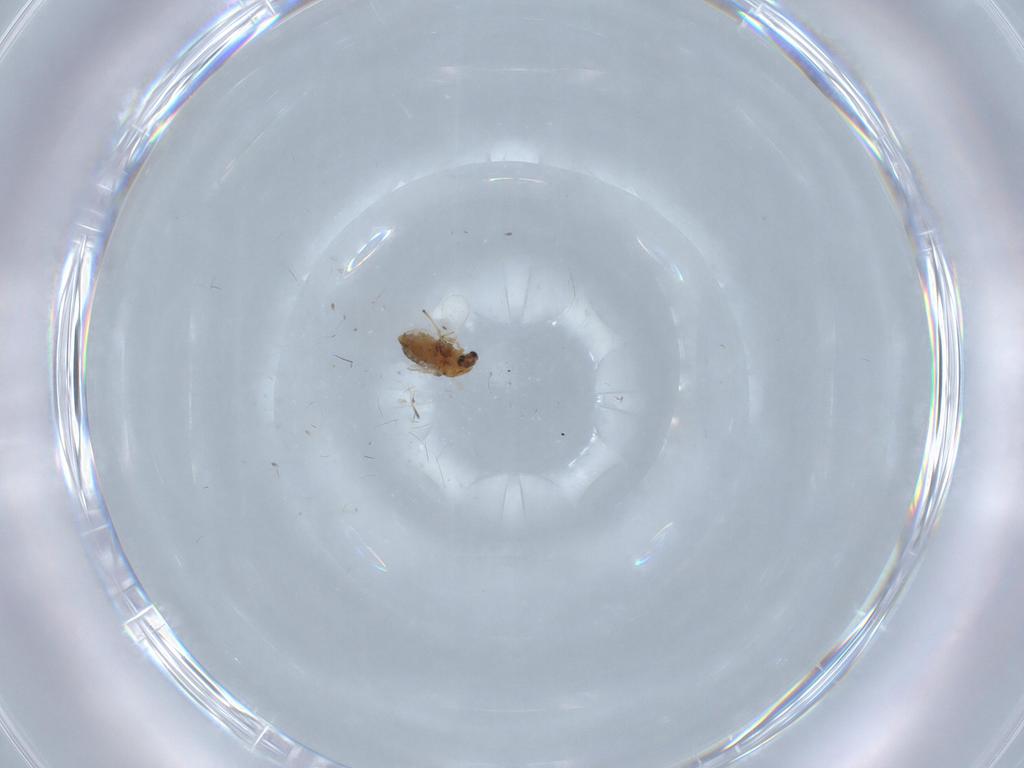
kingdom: Animalia
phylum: Arthropoda
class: Insecta
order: Diptera
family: Chironomidae
